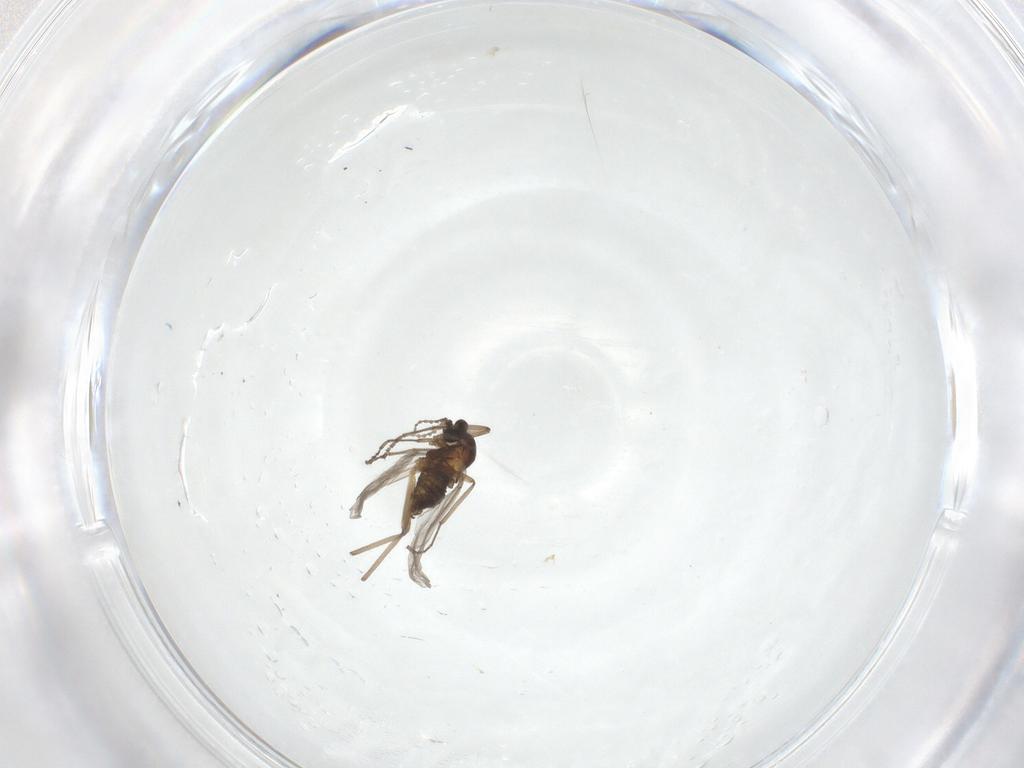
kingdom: Animalia
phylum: Arthropoda
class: Insecta
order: Diptera
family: Cecidomyiidae
